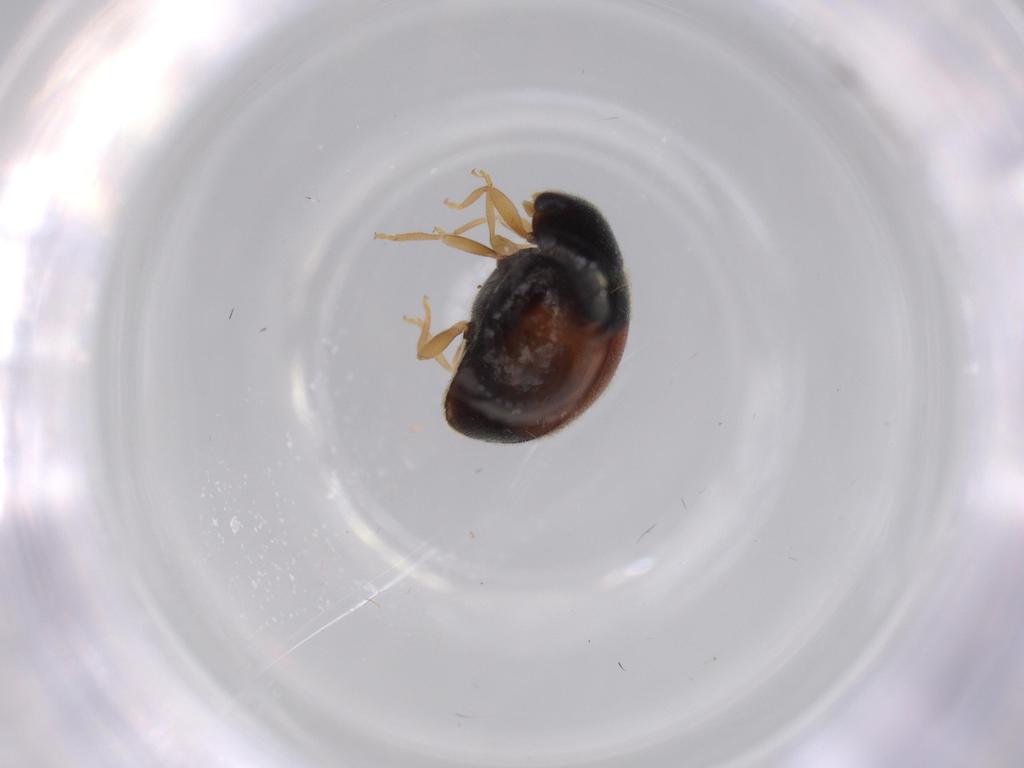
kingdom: Animalia
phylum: Arthropoda
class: Insecta
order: Coleoptera
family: Coccinellidae
